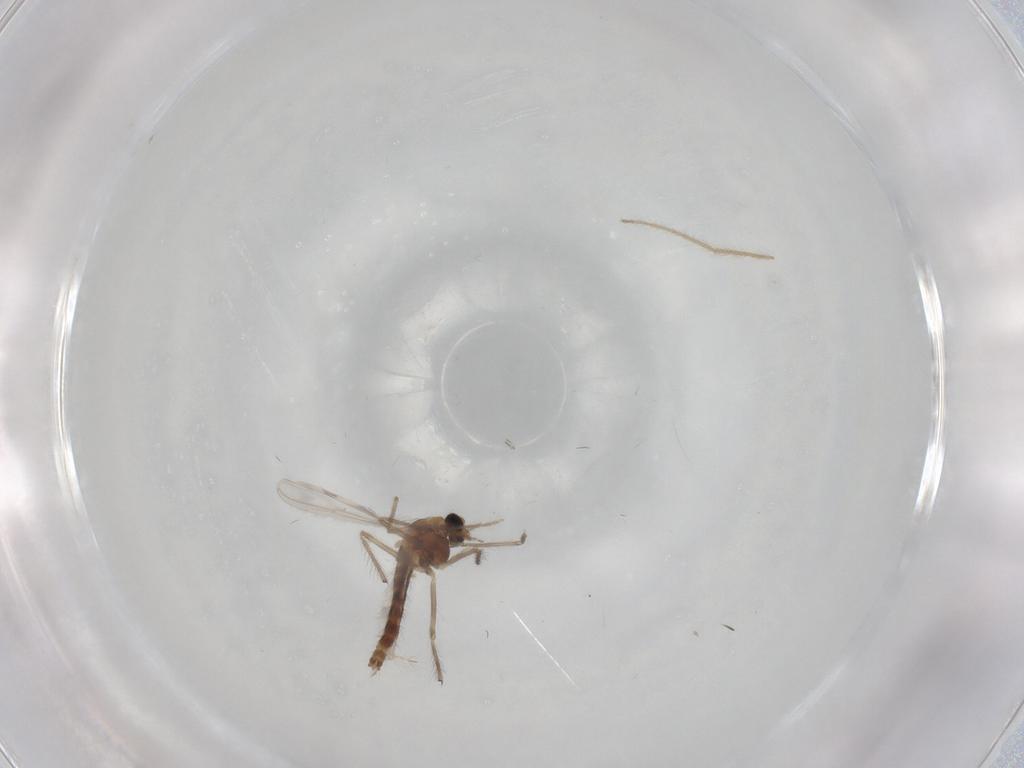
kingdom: Animalia
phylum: Arthropoda
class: Insecta
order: Diptera
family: Chironomidae
